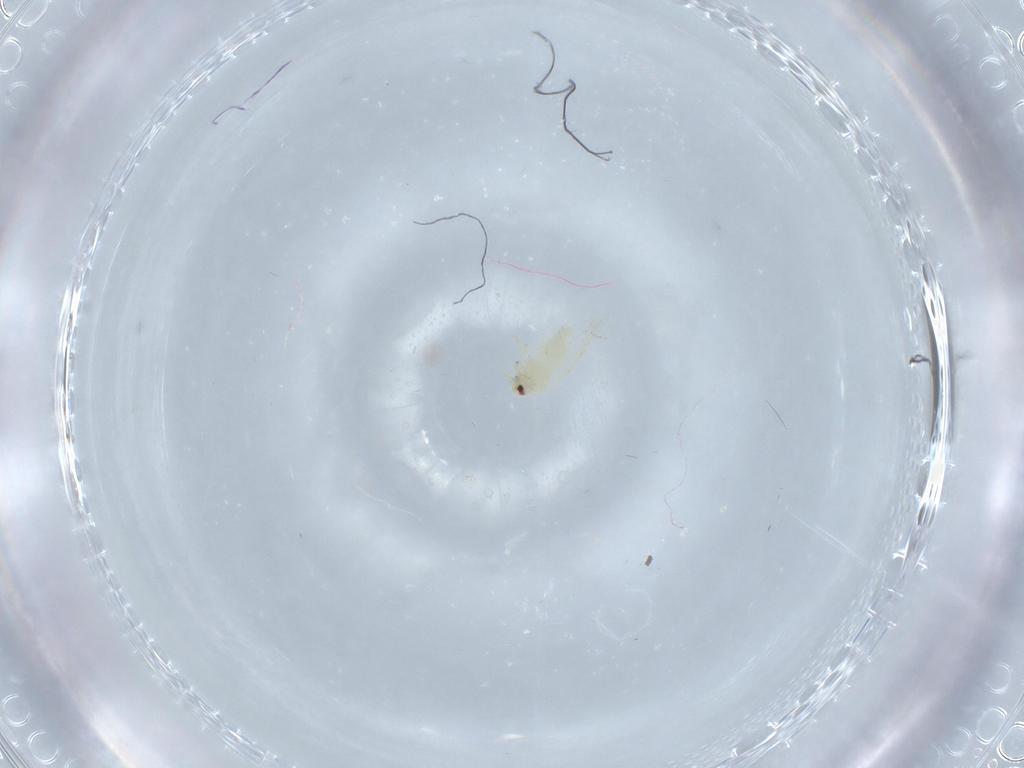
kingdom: Animalia
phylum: Arthropoda
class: Insecta
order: Hemiptera
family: Aleyrodidae
